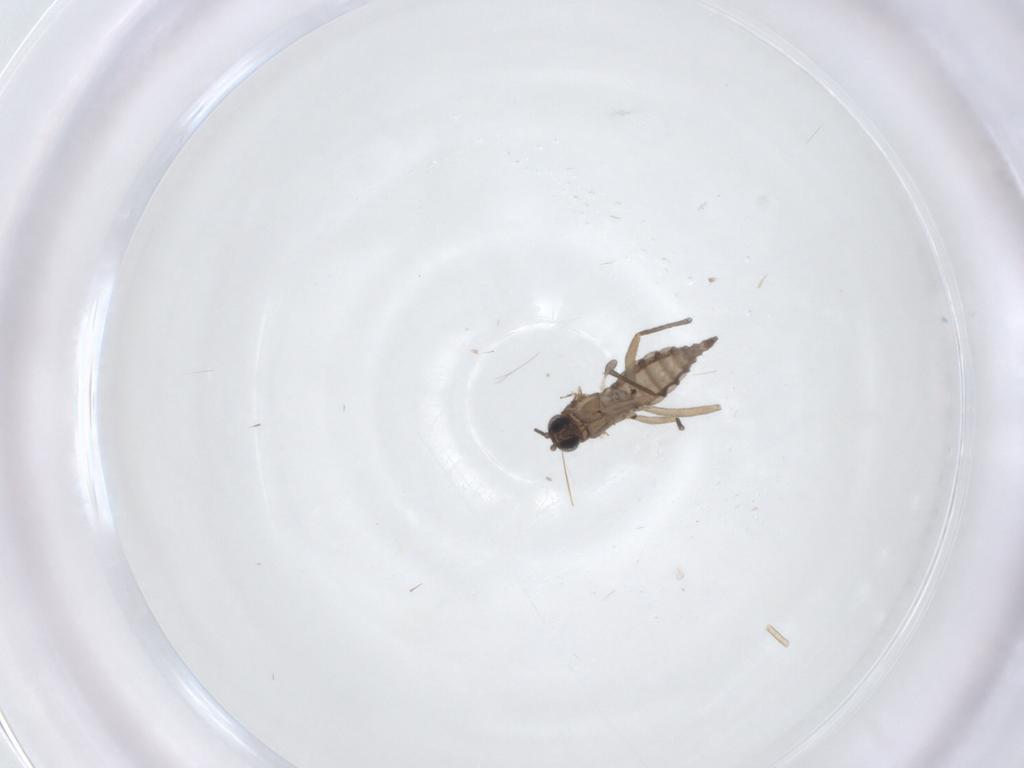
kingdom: Animalia
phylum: Arthropoda
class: Insecta
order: Diptera
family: Sciaridae
